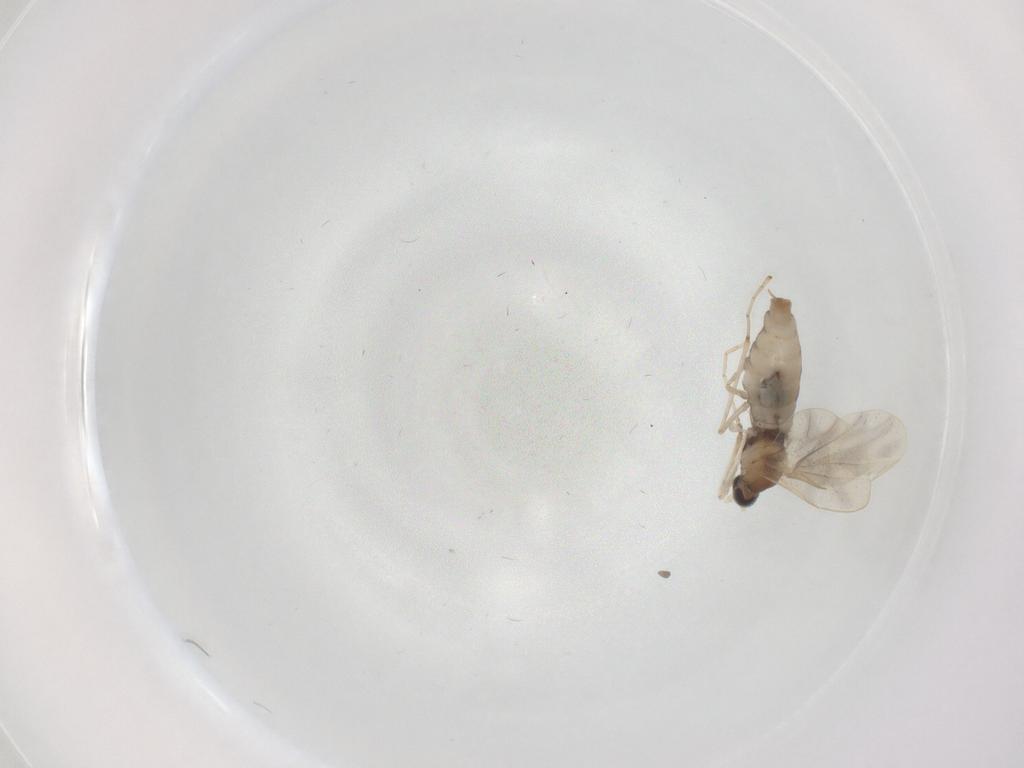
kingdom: Animalia
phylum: Arthropoda
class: Insecta
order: Diptera
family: Cecidomyiidae
